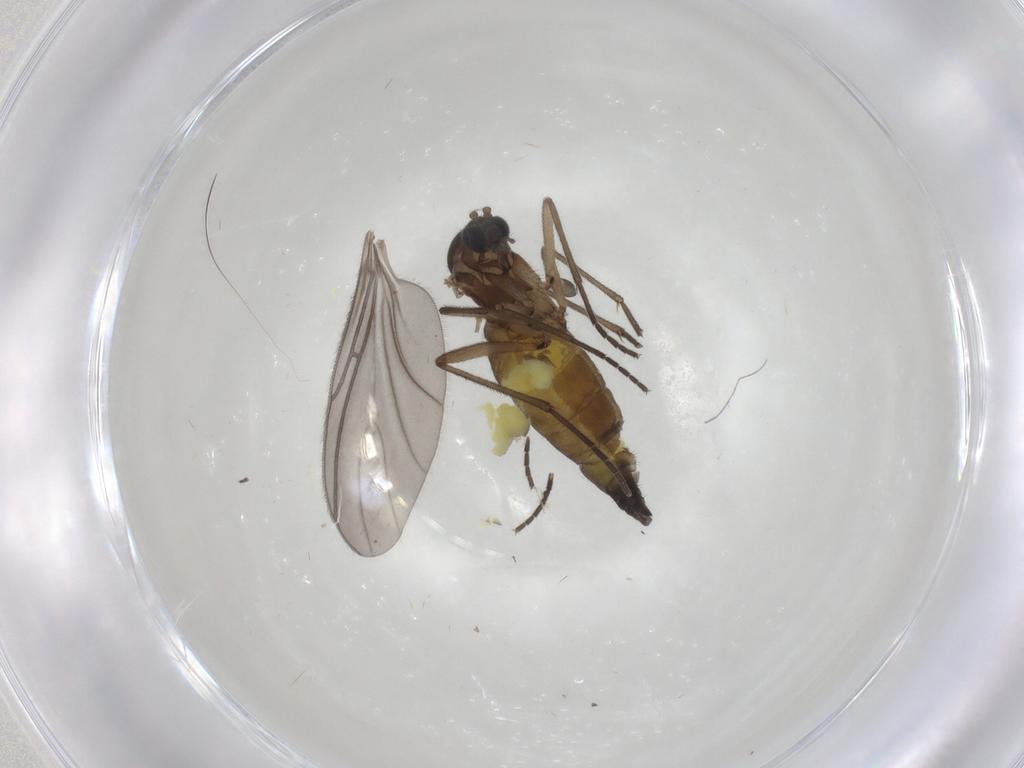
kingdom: Animalia
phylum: Arthropoda
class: Insecta
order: Diptera
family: Sciaridae
